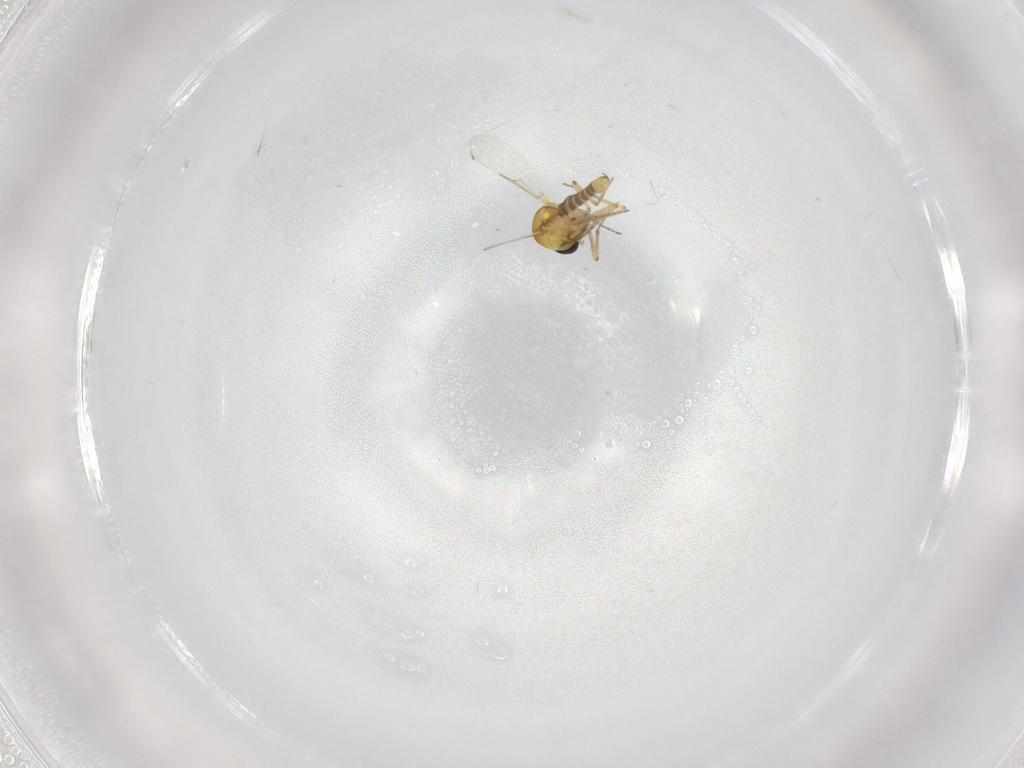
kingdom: Animalia
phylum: Arthropoda
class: Insecta
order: Diptera
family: Ceratopogonidae
